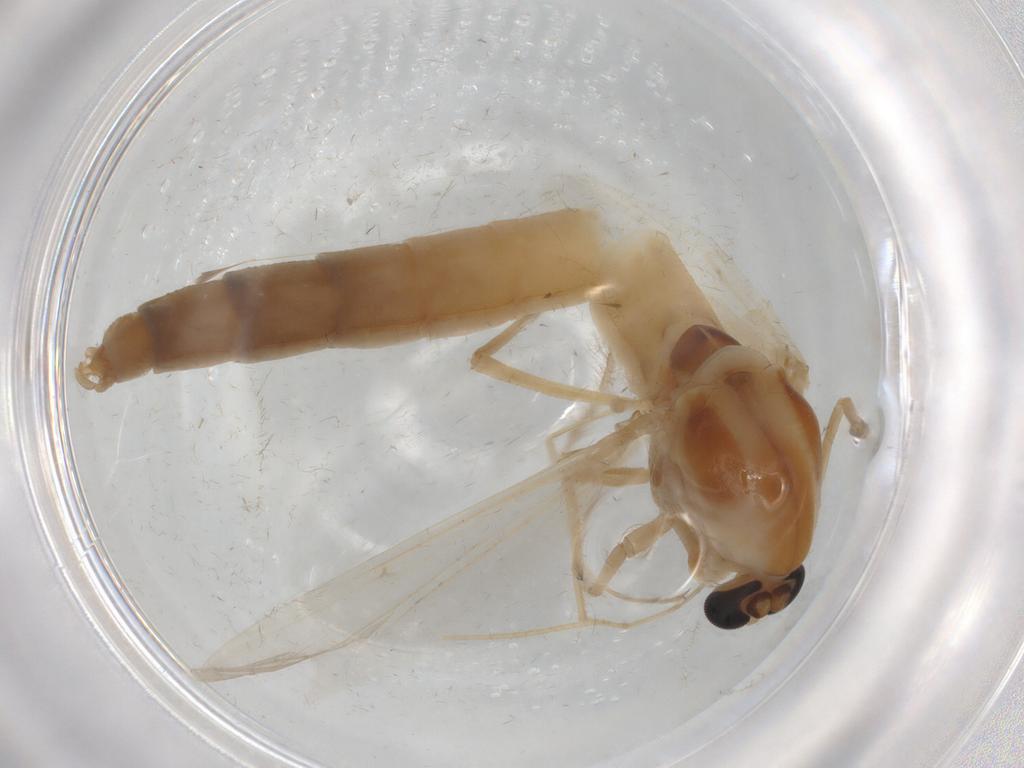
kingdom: Animalia
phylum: Arthropoda
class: Insecta
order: Diptera
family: Chironomidae
